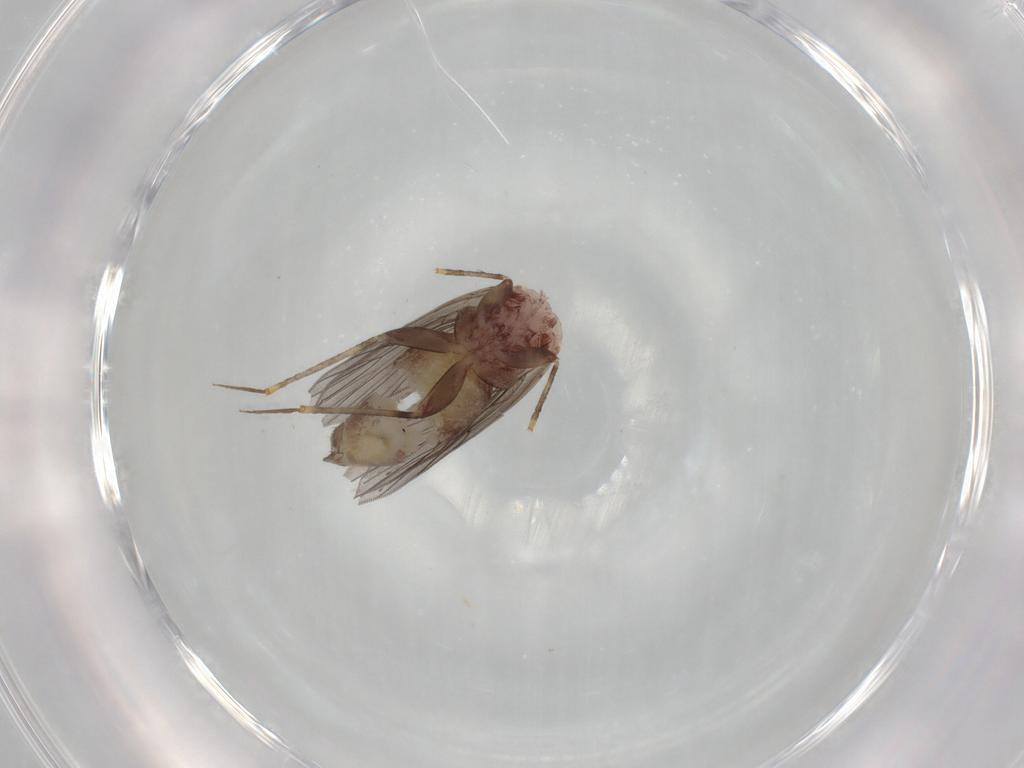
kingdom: Animalia
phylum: Arthropoda
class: Insecta
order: Psocodea
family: Lepidopsocidae
